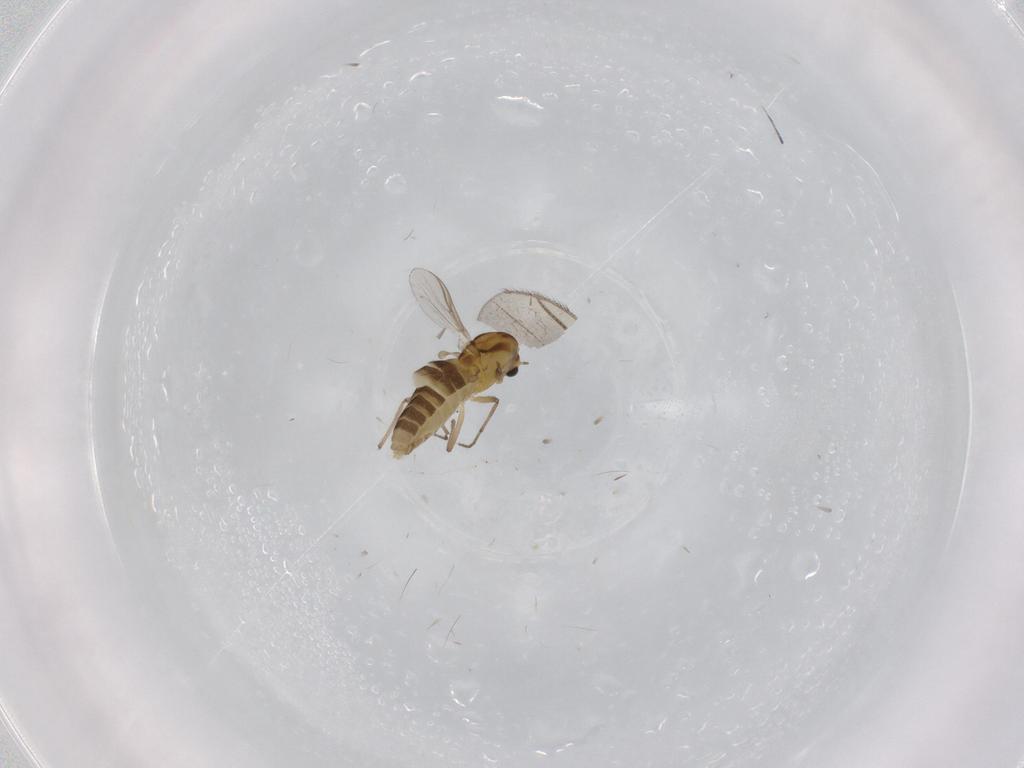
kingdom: Animalia
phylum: Arthropoda
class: Insecta
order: Diptera
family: Chironomidae
